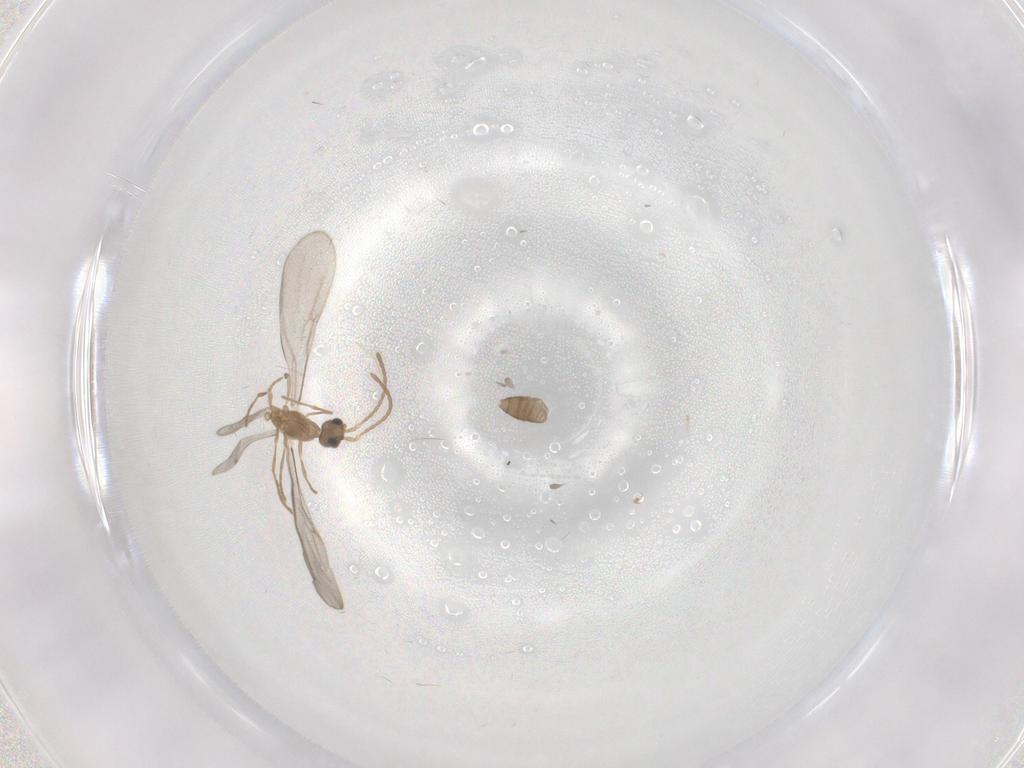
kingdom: Animalia
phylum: Arthropoda
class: Insecta
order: Hymenoptera
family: Formicidae
